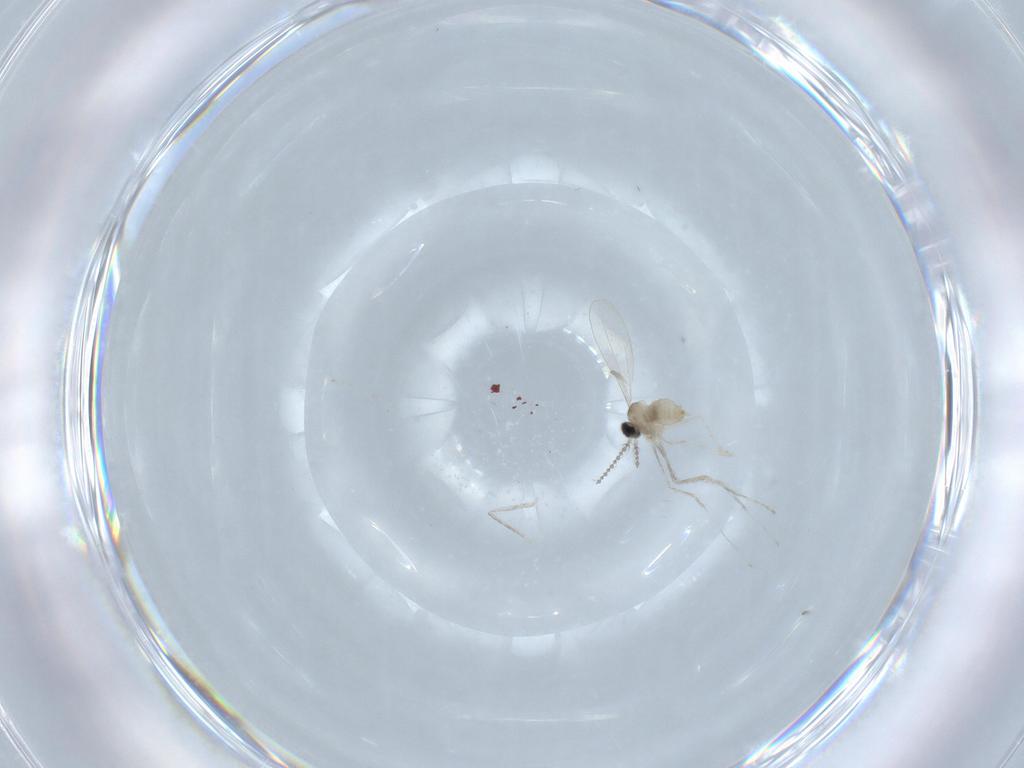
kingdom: Animalia
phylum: Arthropoda
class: Insecta
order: Diptera
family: Cecidomyiidae
